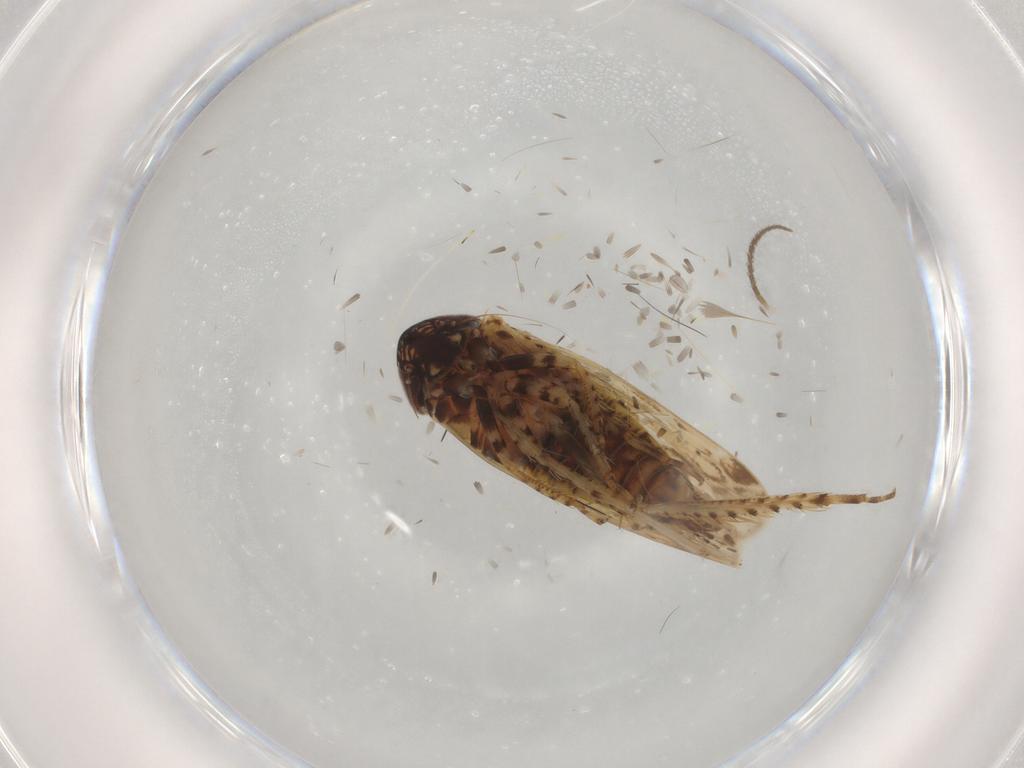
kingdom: Animalia
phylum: Arthropoda
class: Insecta
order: Hemiptera
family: Cicadellidae
